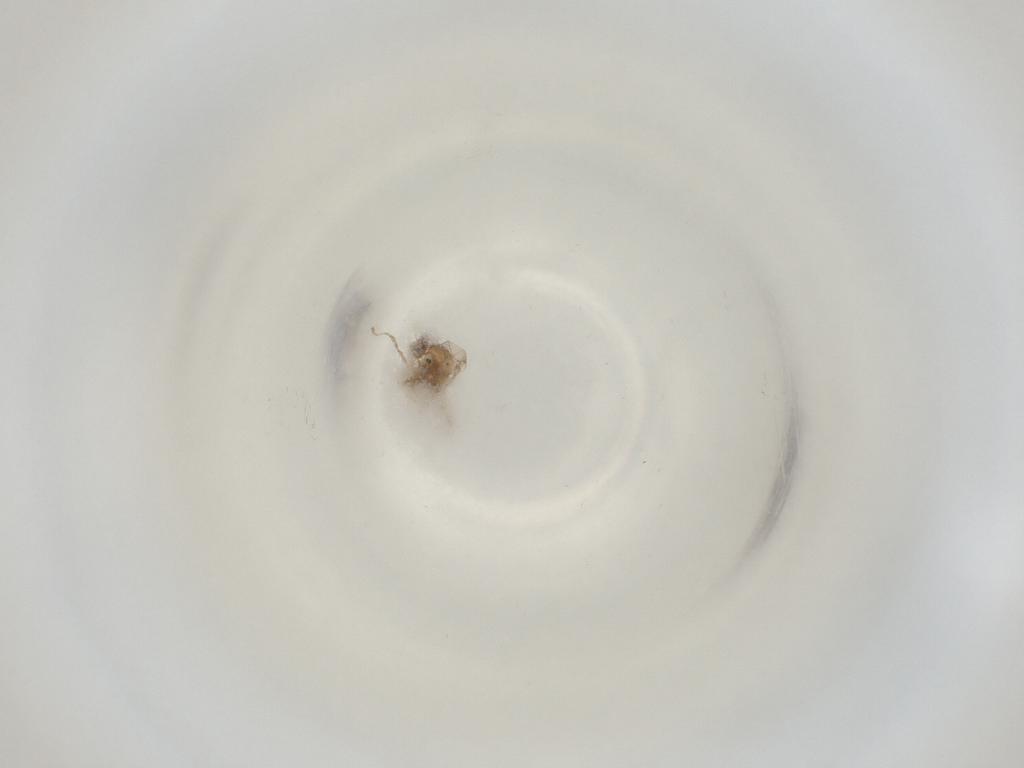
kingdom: Animalia
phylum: Arthropoda
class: Insecta
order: Diptera
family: Cecidomyiidae
